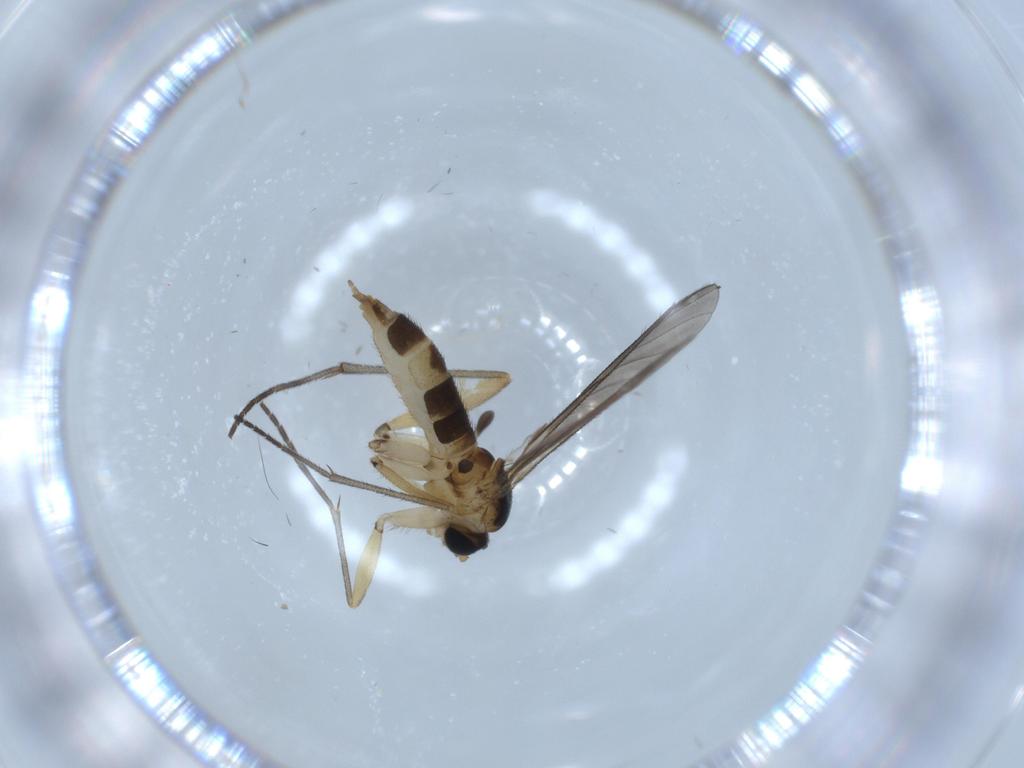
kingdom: Animalia
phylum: Arthropoda
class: Insecta
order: Diptera
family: Sciaridae
